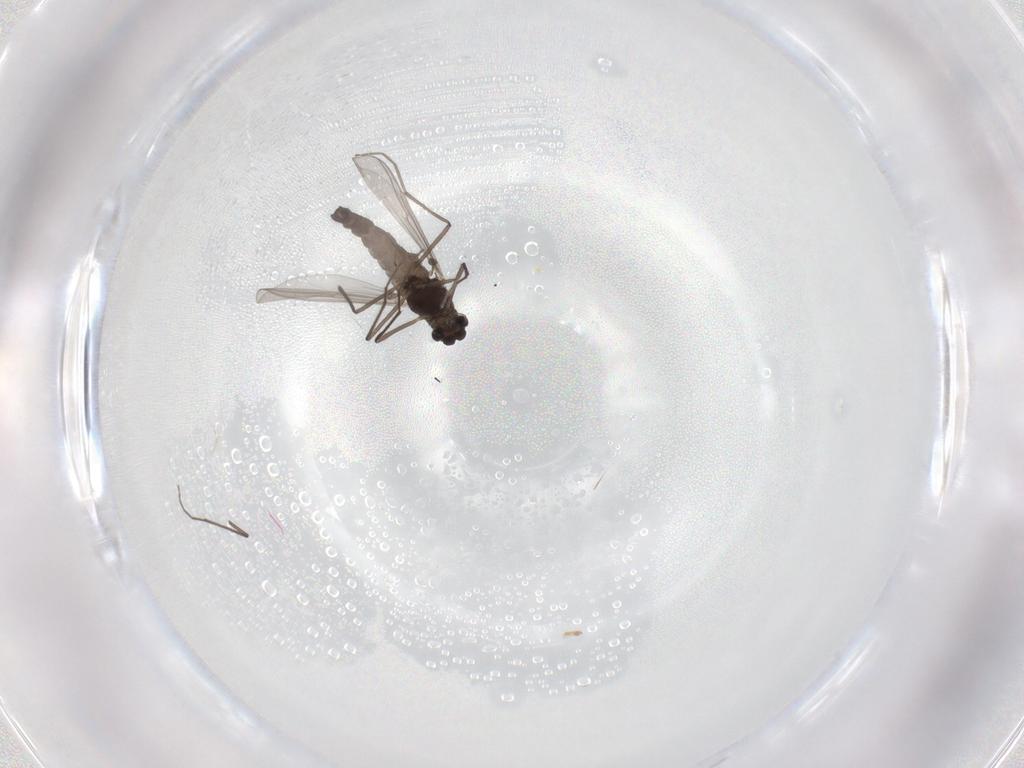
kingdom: Animalia
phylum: Arthropoda
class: Insecta
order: Diptera
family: Chironomidae
